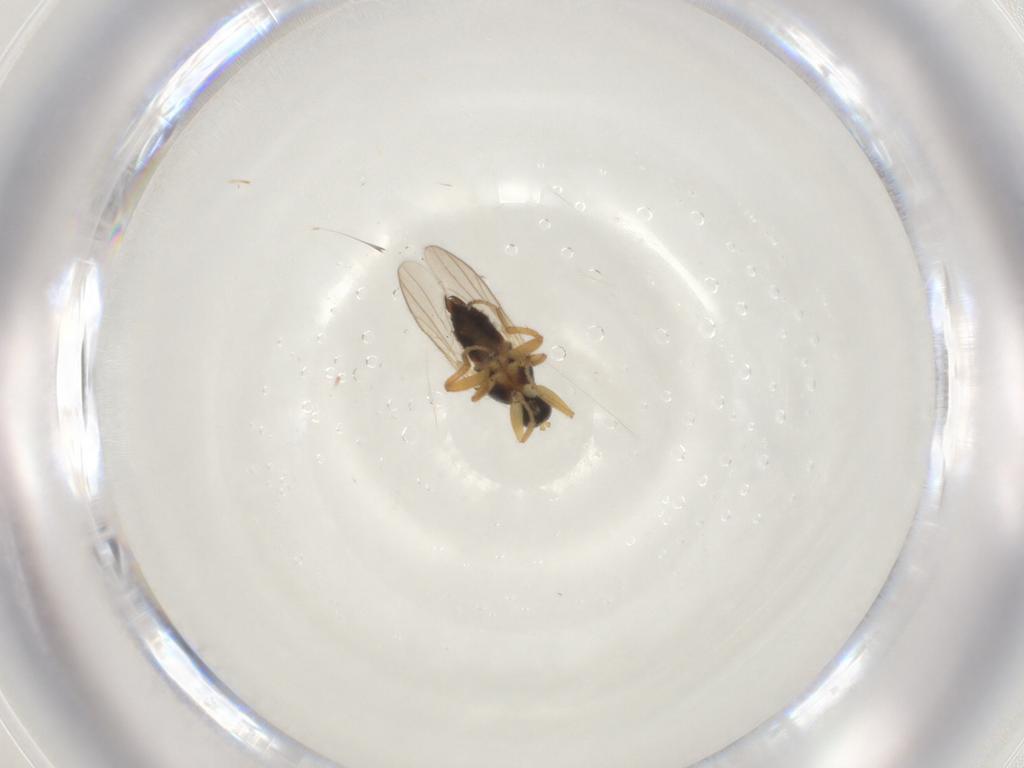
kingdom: Animalia
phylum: Arthropoda
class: Insecta
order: Diptera
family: Hybotidae
